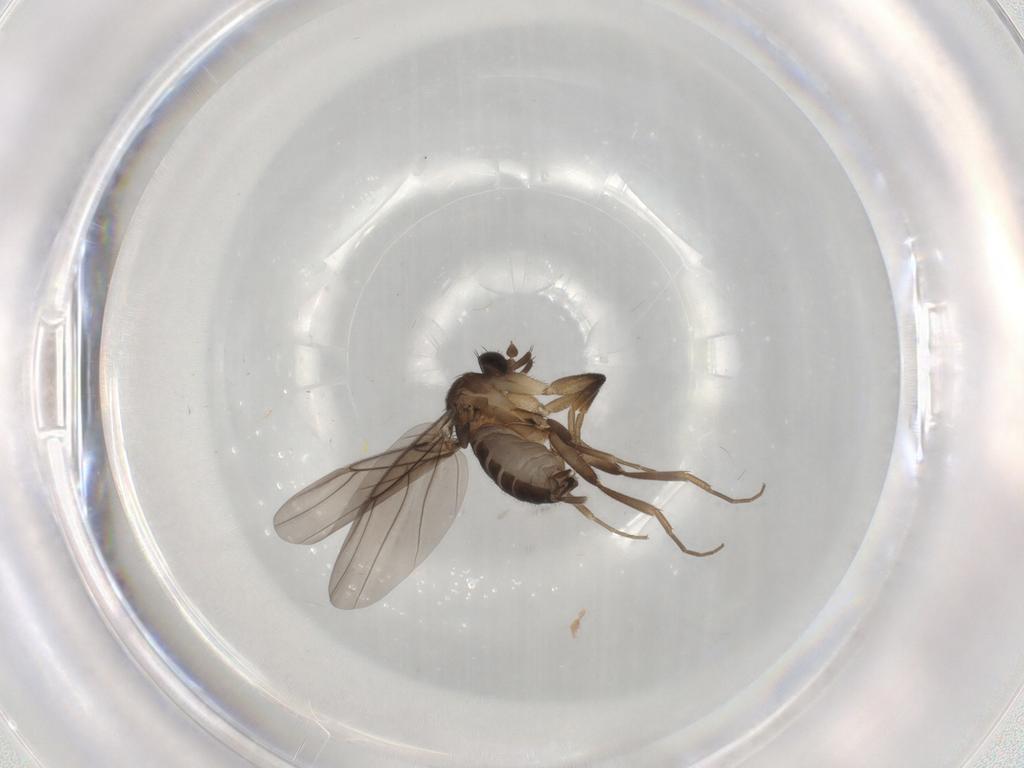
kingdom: Animalia
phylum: Arthropoda
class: Insecta
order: Diptera
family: Phoridae
